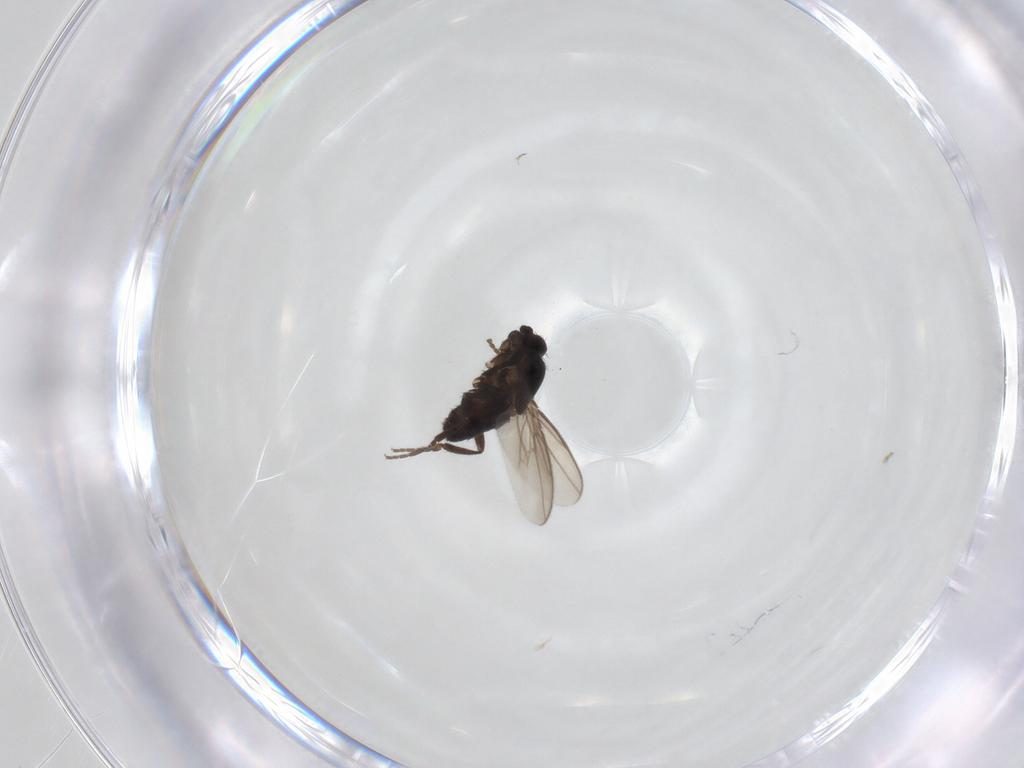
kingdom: Animalia
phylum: Arthropoda
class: Insecta
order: Diptera
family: Sphaeroceridae
